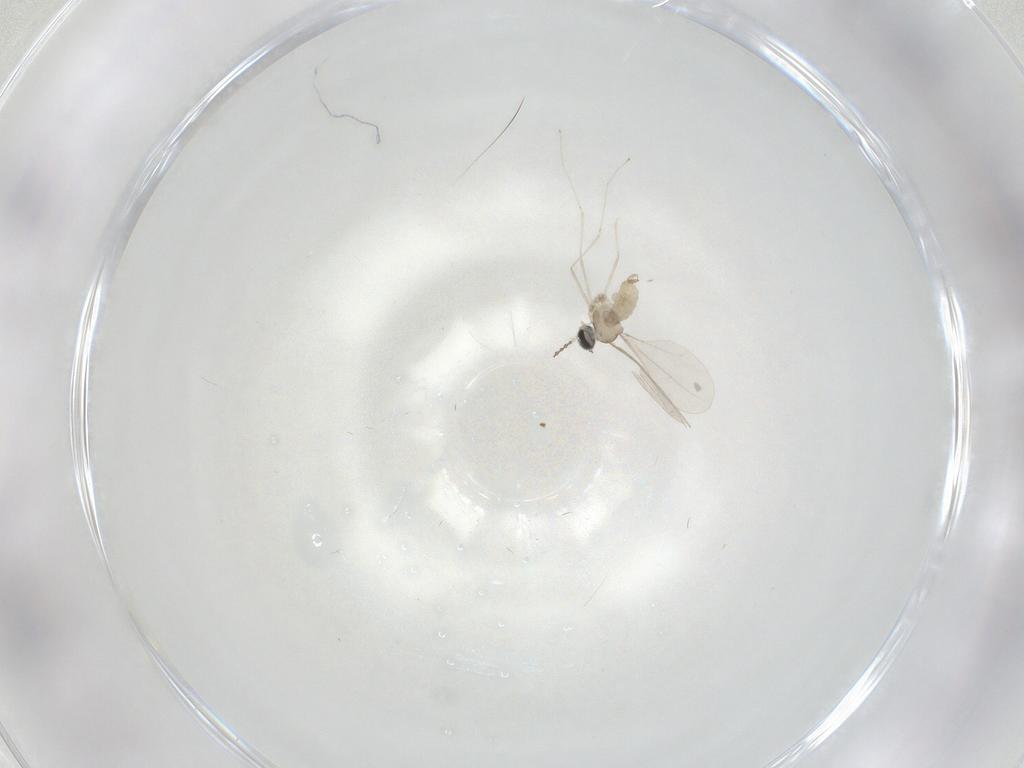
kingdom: Animalia
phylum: Arthropoda
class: Insecta
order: Diptera
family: Cecidomyiidae
